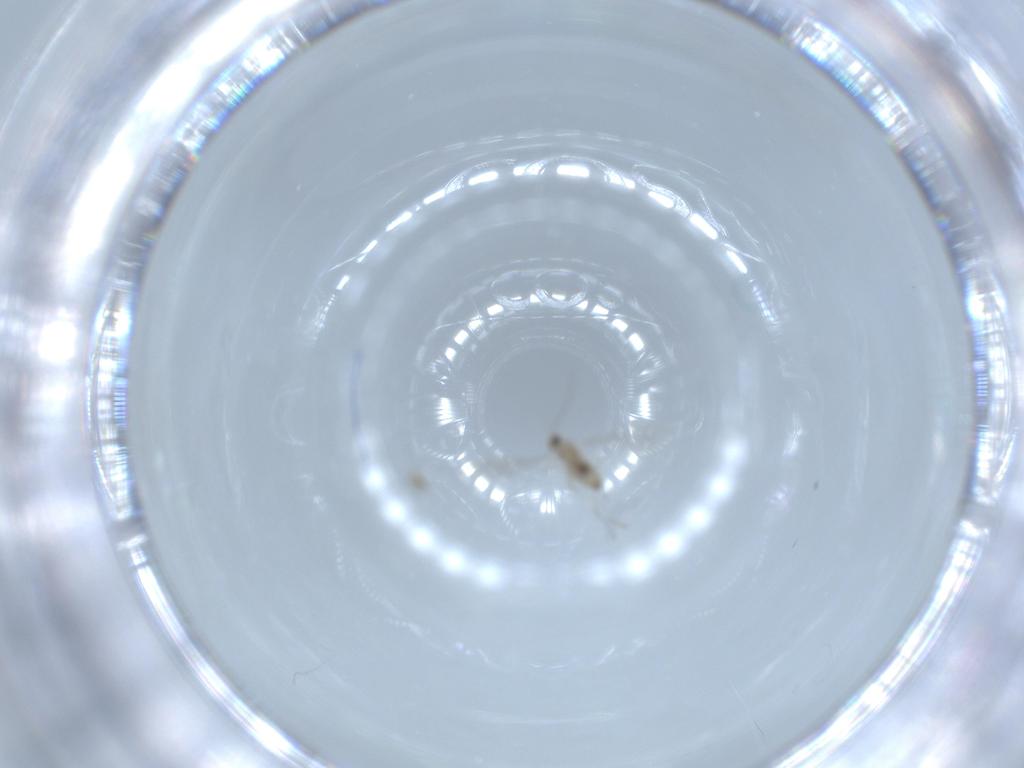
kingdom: Animalia
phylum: Arthropoda
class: Insecta
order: Diptera
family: Cecidomyiidae
